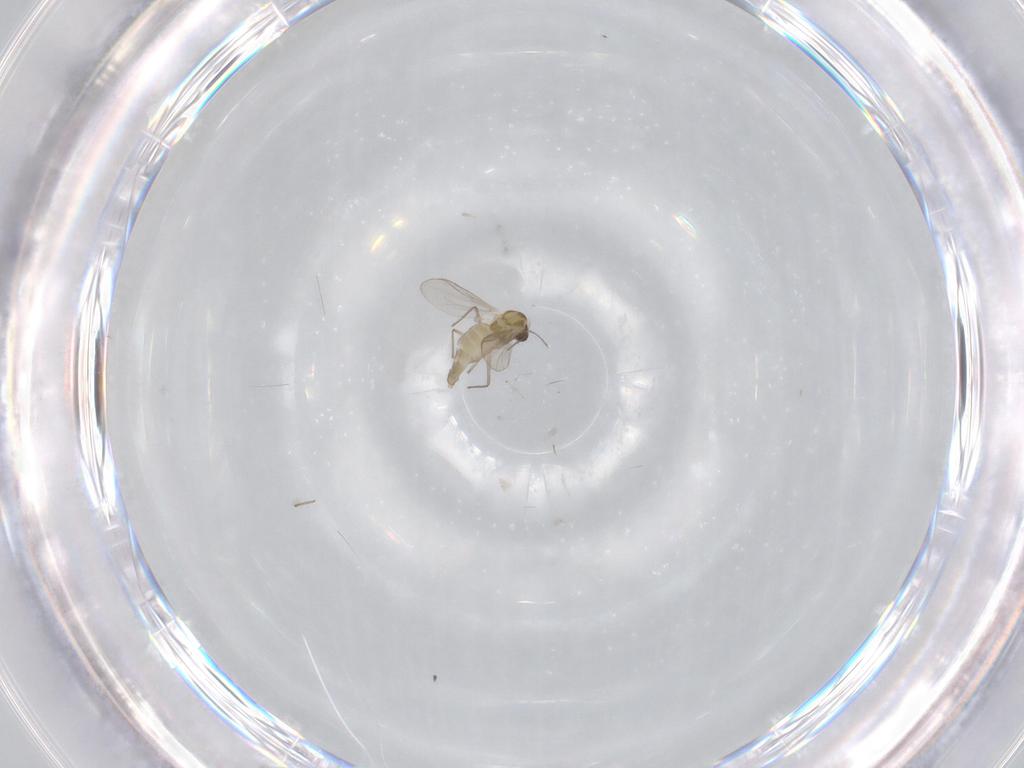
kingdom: Animalia
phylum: Arthropoda
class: Insecta
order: Diptera
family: Chironomidae
